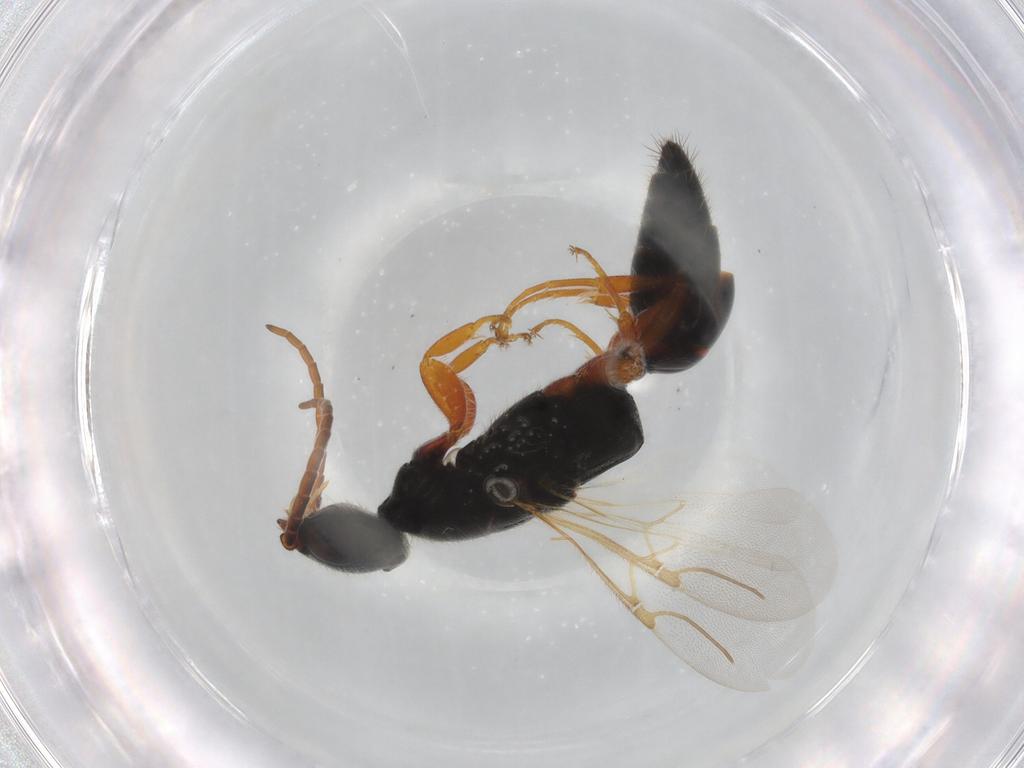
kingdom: Animalia
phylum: Arthropoda
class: Insecta
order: Hymenoptera
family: Bethylidae
